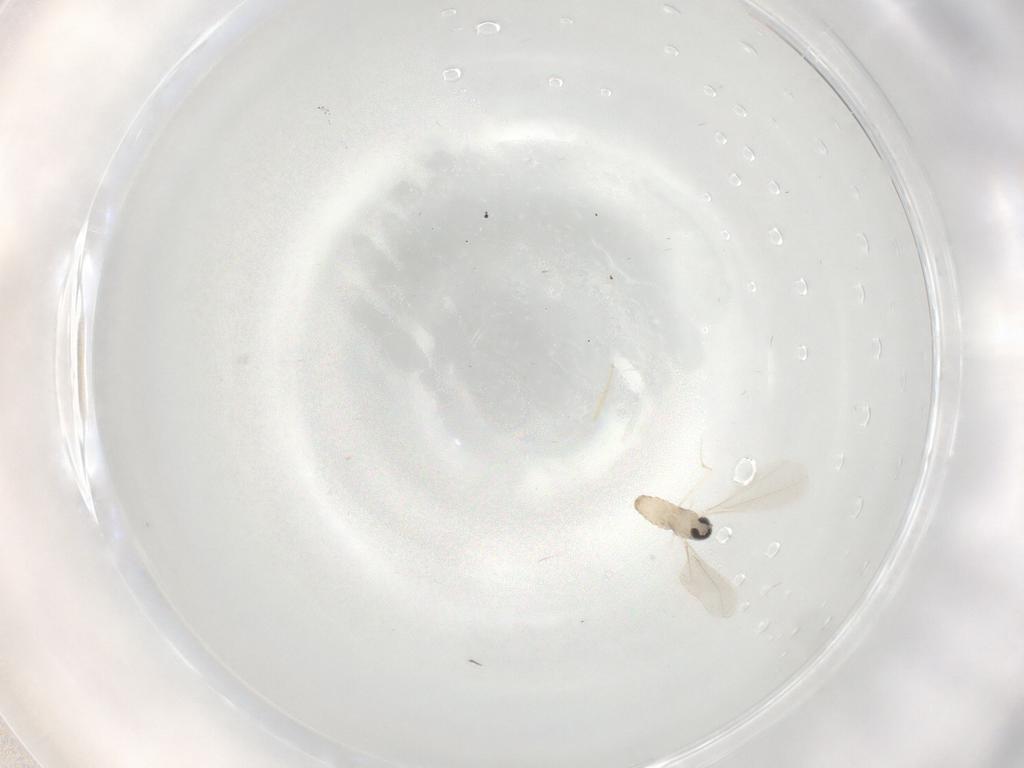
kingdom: Animalia
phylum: Arthropoda
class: Insecta
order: Diptera
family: Cecidomyiidae
